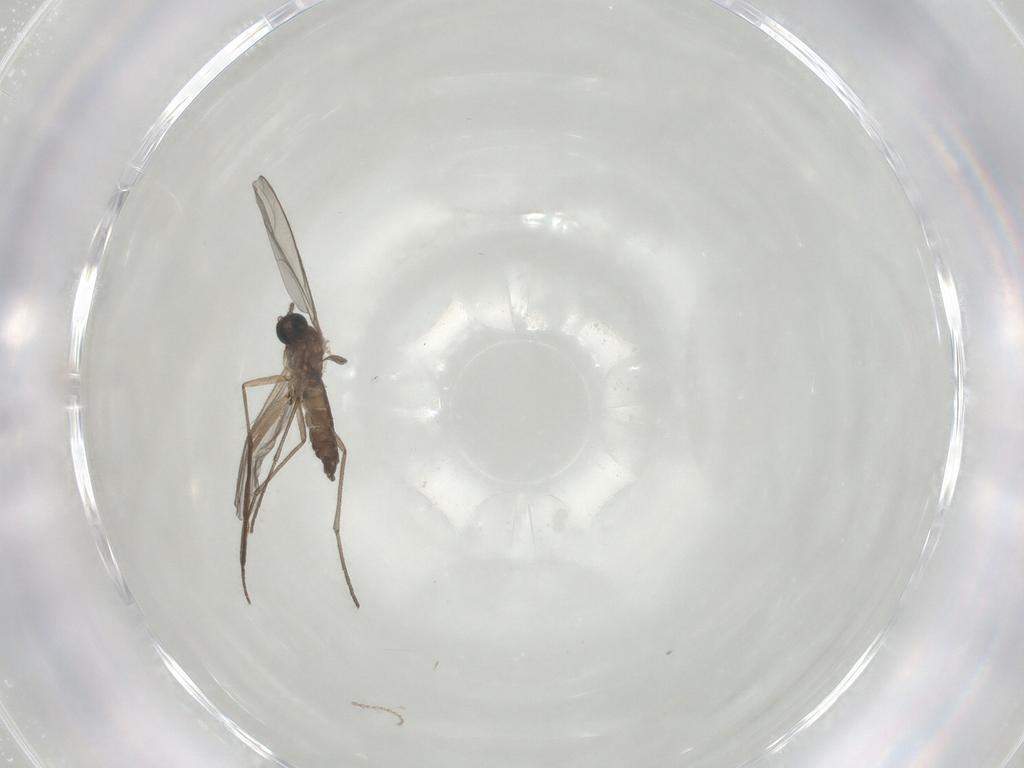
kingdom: Animalia
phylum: Arthropoda
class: Insecta
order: Diptera
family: Sciaridae
